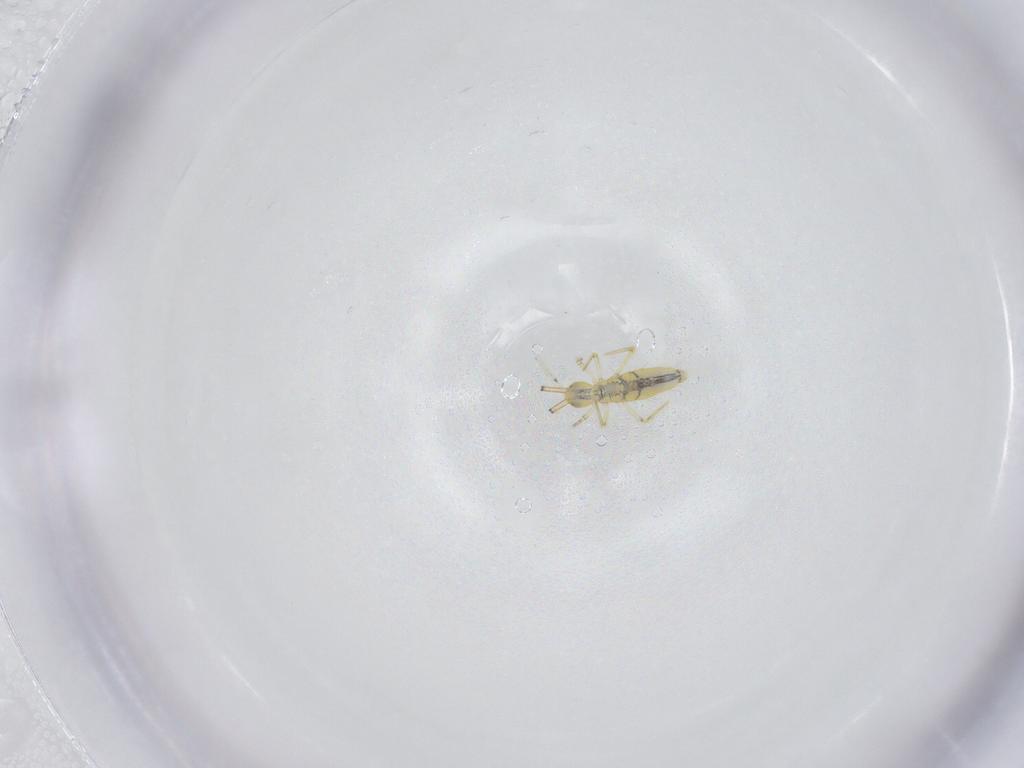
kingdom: Animalia
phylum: Arthropoda
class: Collembola
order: Entomobryomorpha
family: Paronellidae
